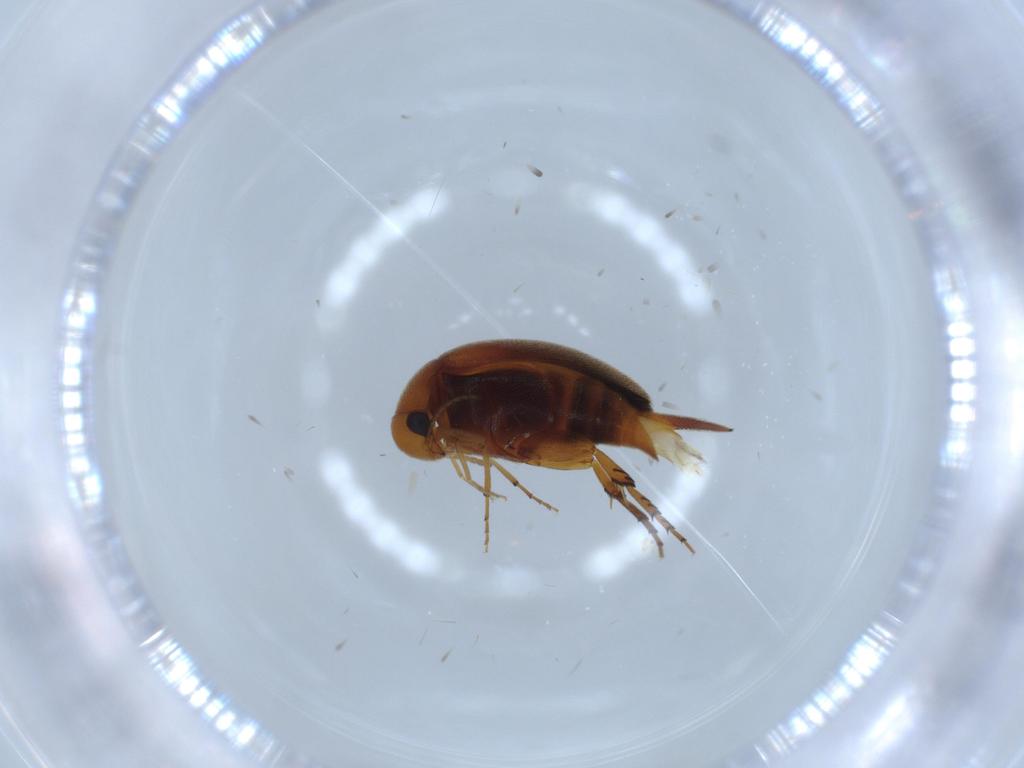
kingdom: Animalia
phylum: Arthropoda
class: Insecta
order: Coleoptera
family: Mordellidae
